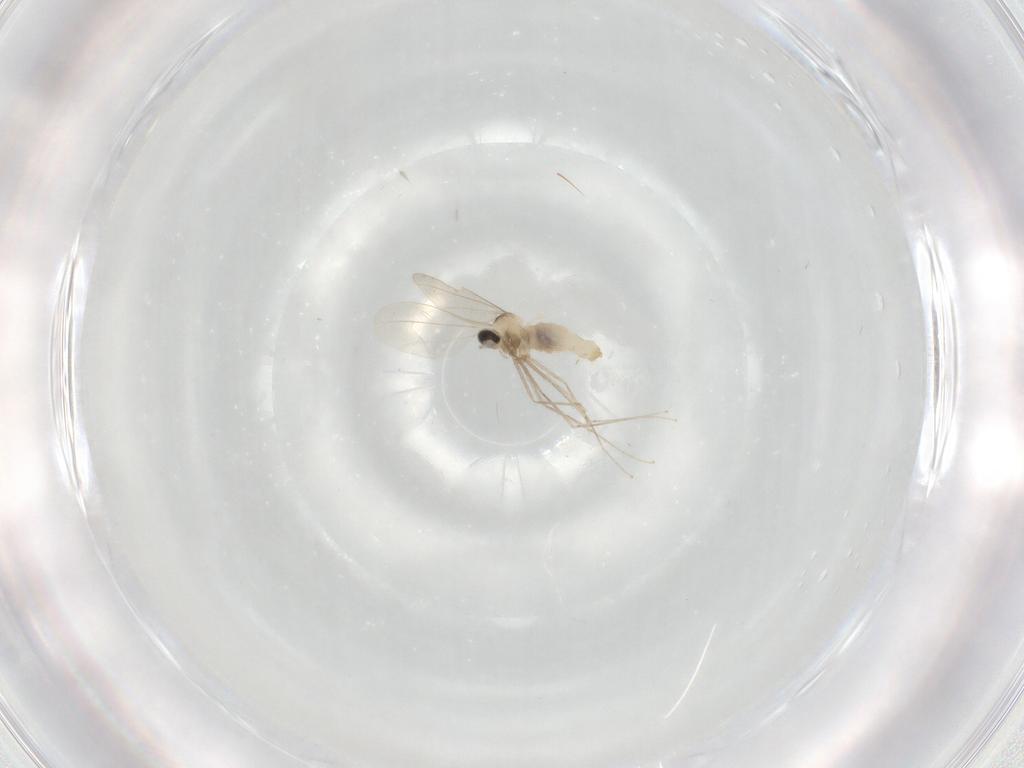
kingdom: Animalia
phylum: Arthropoda
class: Insecta
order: Diptera
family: Cecidomyiidae
